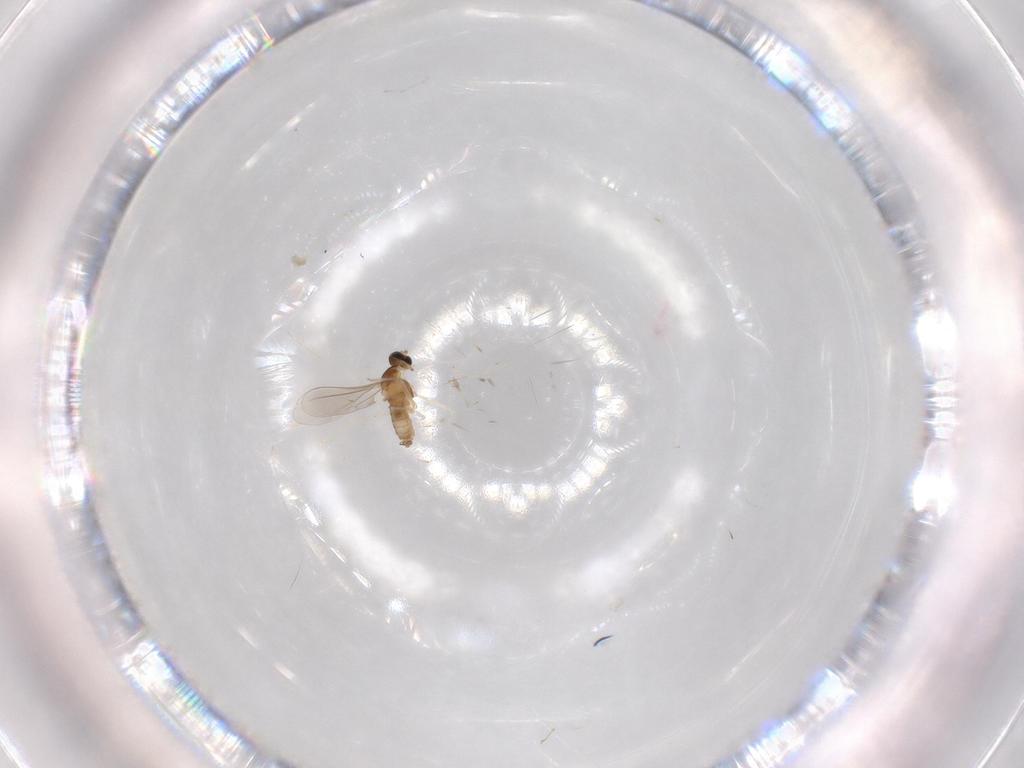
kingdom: Animalia
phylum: Arthropoda
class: Insecta
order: Diptera
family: Cecidomyiidae
